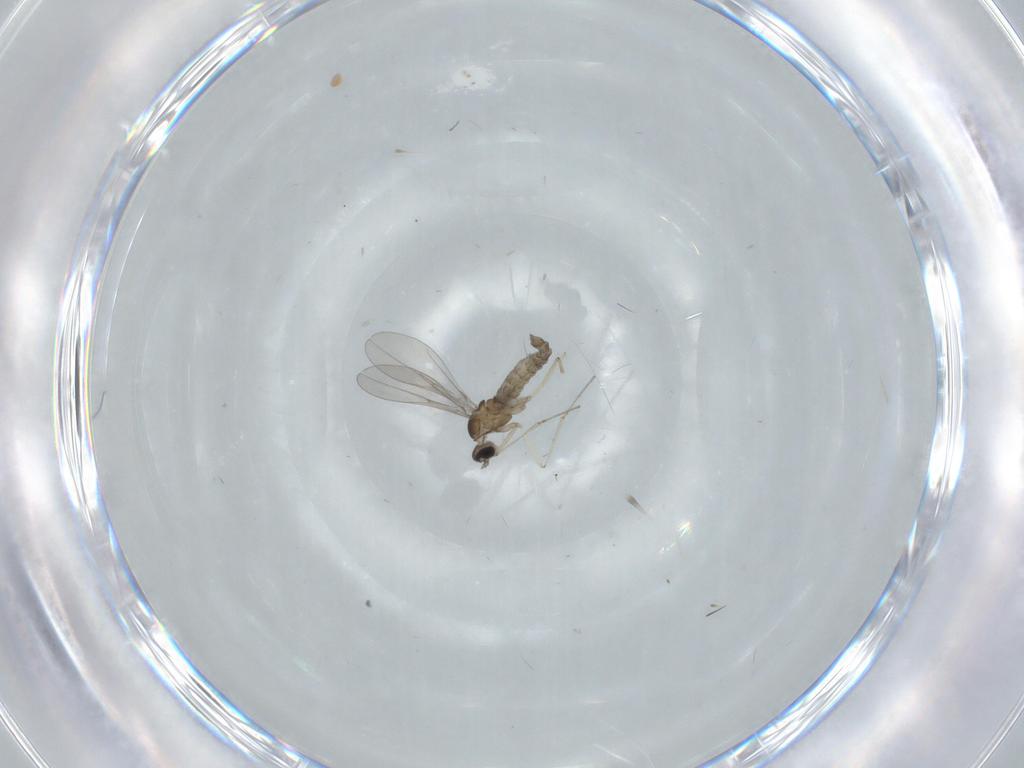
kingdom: Animalia
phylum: Arthropoda
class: Insecta
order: Diptera
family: Cecidomyiidae
